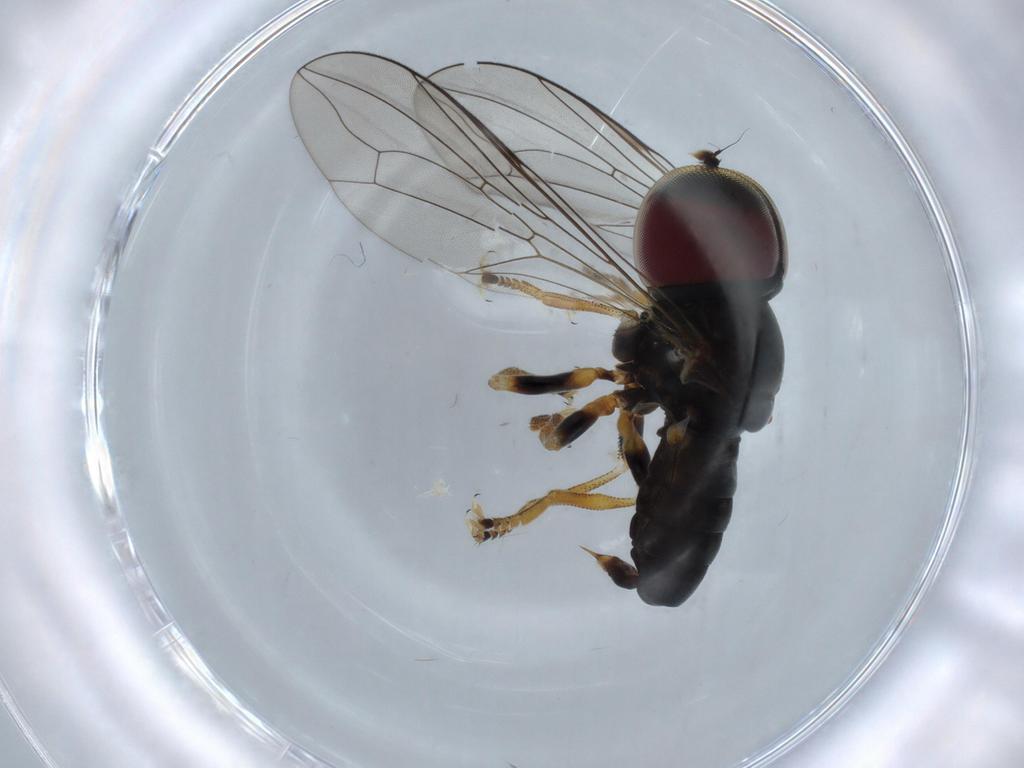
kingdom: Animalia
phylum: Arthropoda
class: Insecta
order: Diptera
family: Pipunculidae
